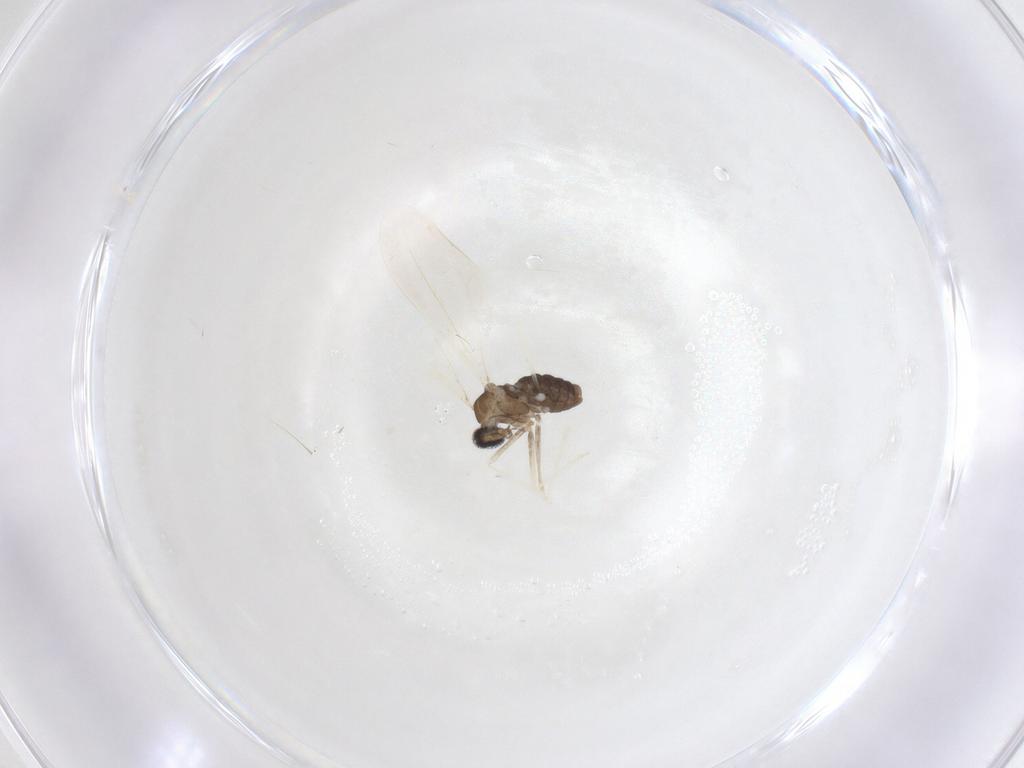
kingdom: Animalia
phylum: Arthropoda
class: Insecta
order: Diptera
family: Cecidomyiidae
